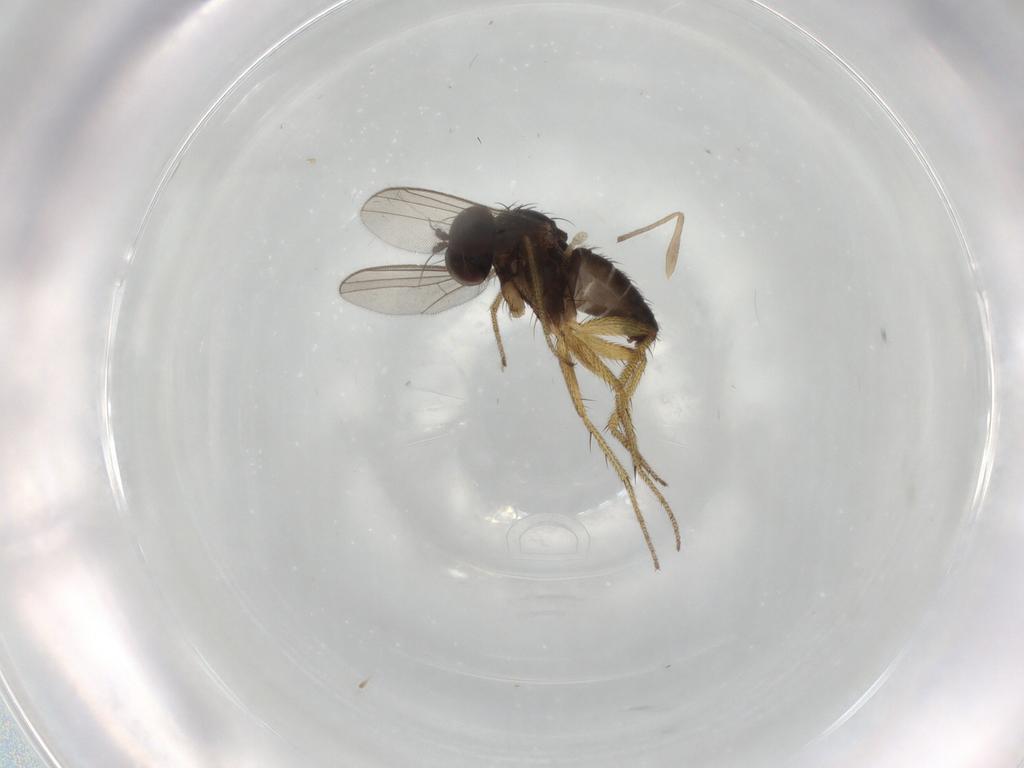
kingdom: Animalia
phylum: Arthropoda
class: Insecta
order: Diptera
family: Dolichopodidae
